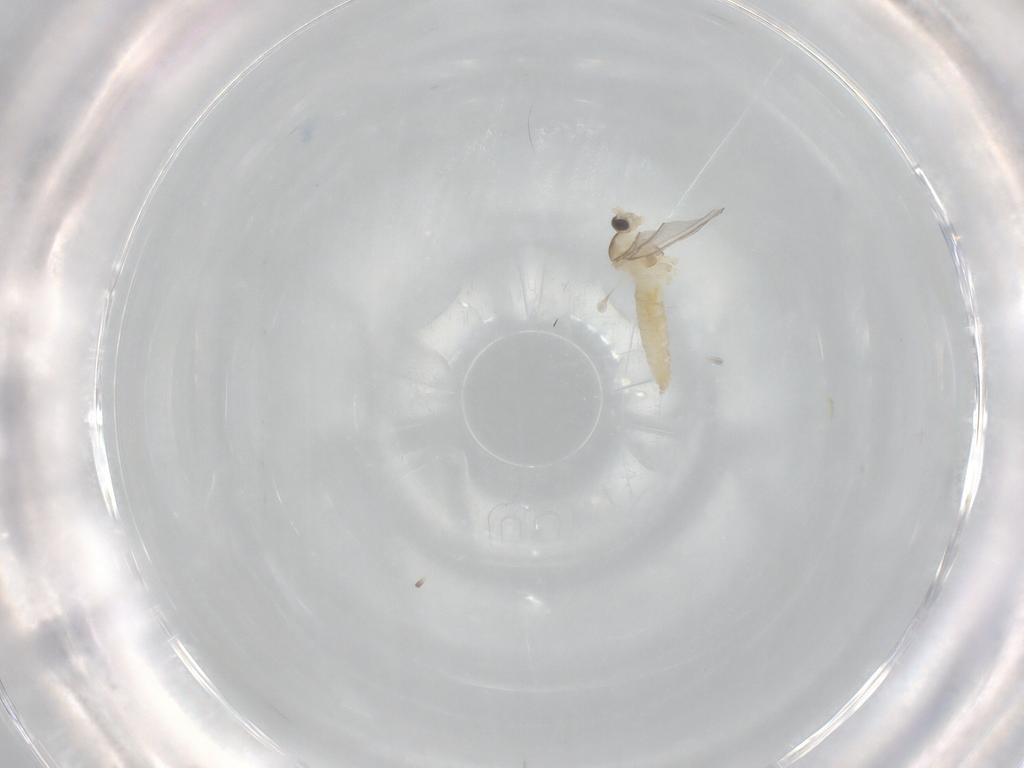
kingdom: Animalia
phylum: Arthropoda
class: Insecta
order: Diptera
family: Cecidomyiidae
